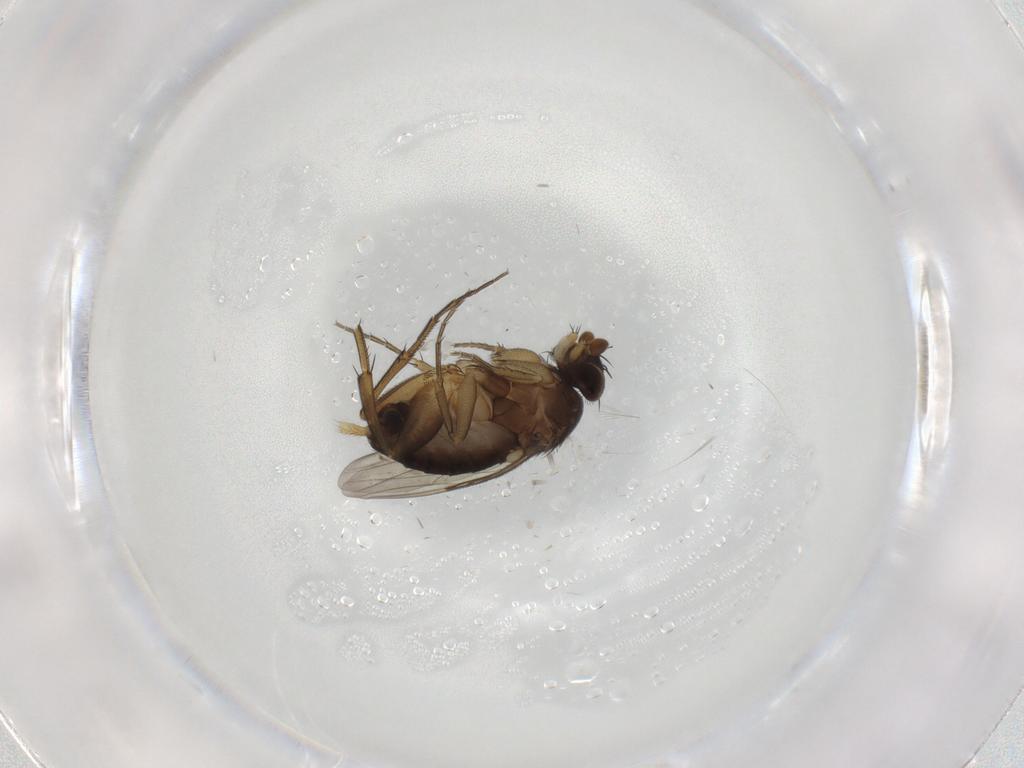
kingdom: Animalia
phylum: Arthropoda
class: Insecta
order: Diptera
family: Phoridae
